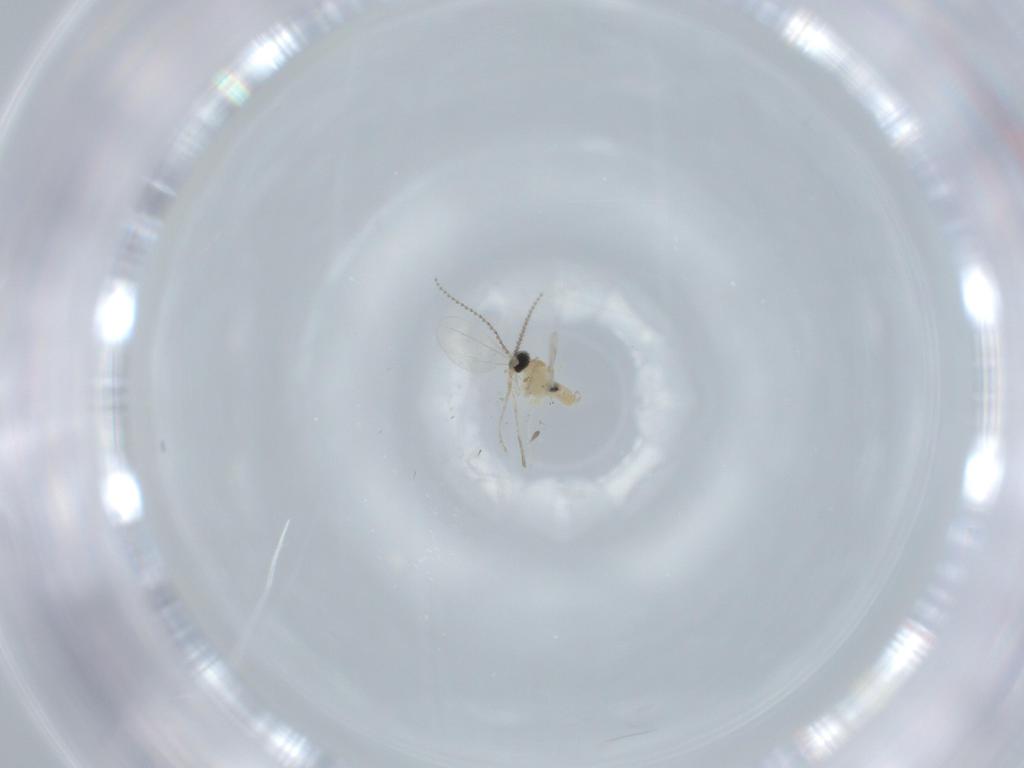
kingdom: Animalia
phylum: Arthropoda
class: Insecta
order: Diptera
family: Cecidomyiidae
